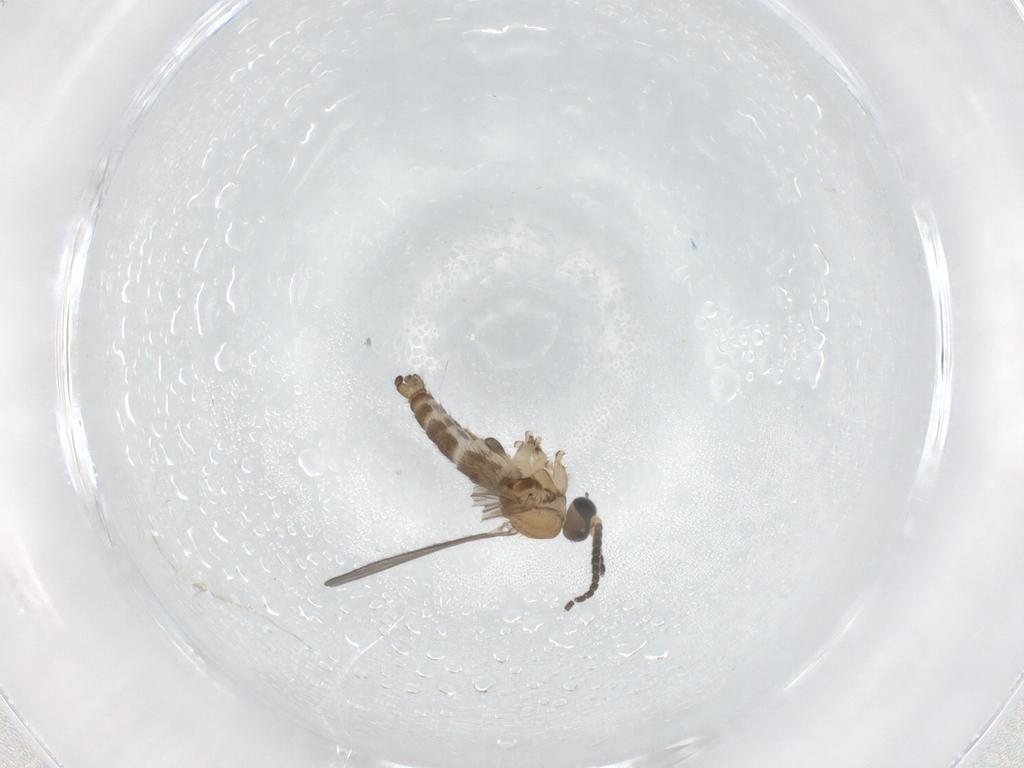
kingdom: Animalia
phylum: Arthropoda
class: Insecta
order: Diptera
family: Sciaridae
